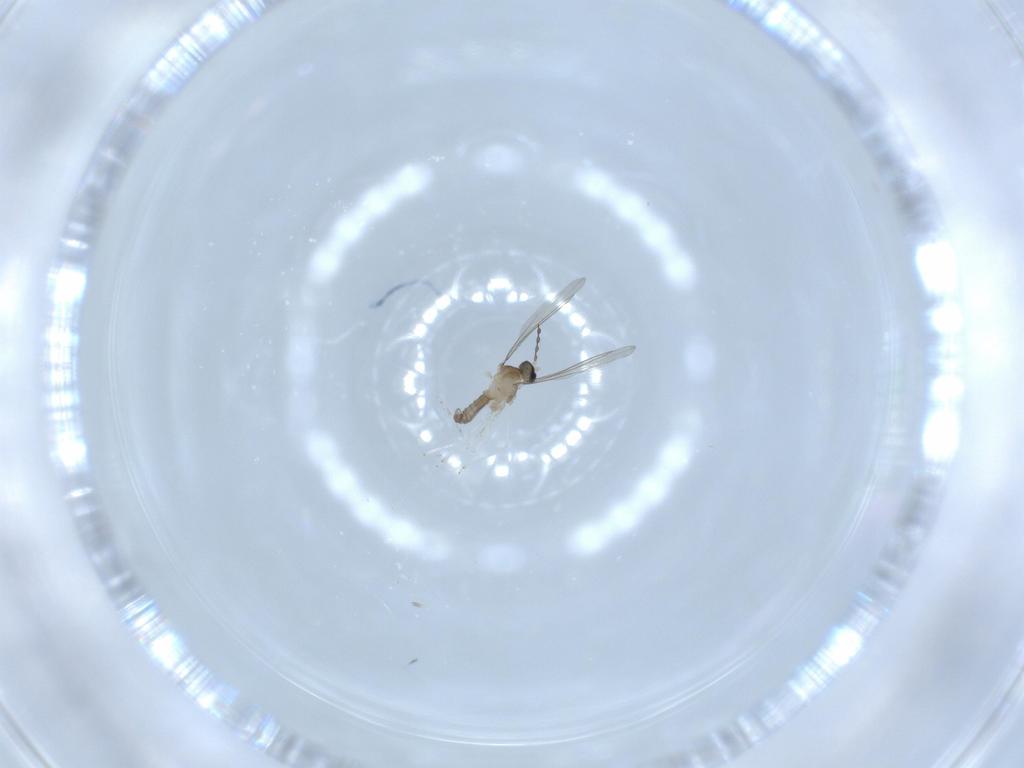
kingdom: Animalia
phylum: Arthropoda
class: Insecta
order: Diptera
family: Cecidomyiidae
